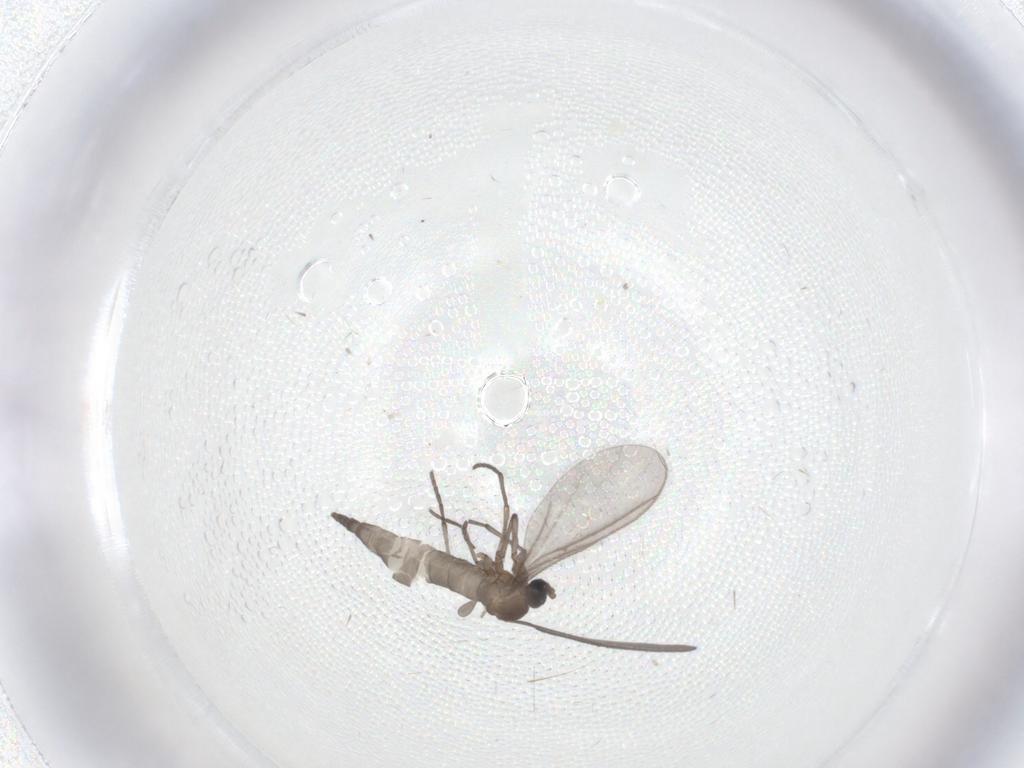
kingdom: Animalia
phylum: Arthropoda
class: Insecta
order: Diptera
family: Sciaridae
